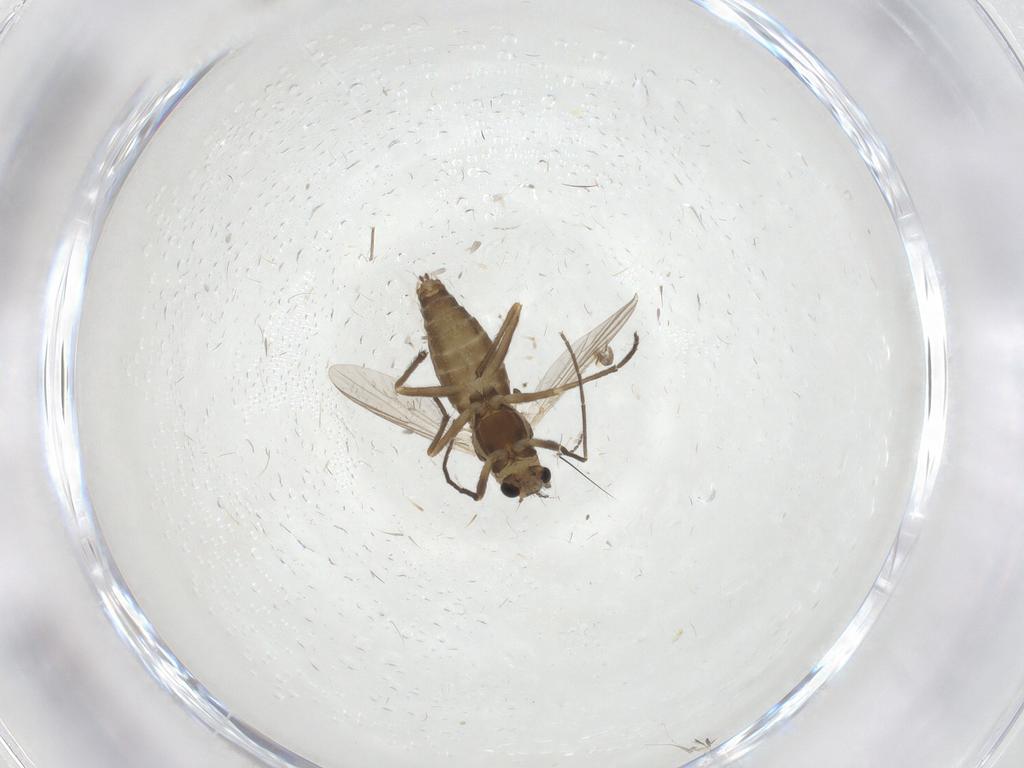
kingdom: Animalia
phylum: Arthropoda
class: Insecta
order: Diptera
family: Chironomidae
